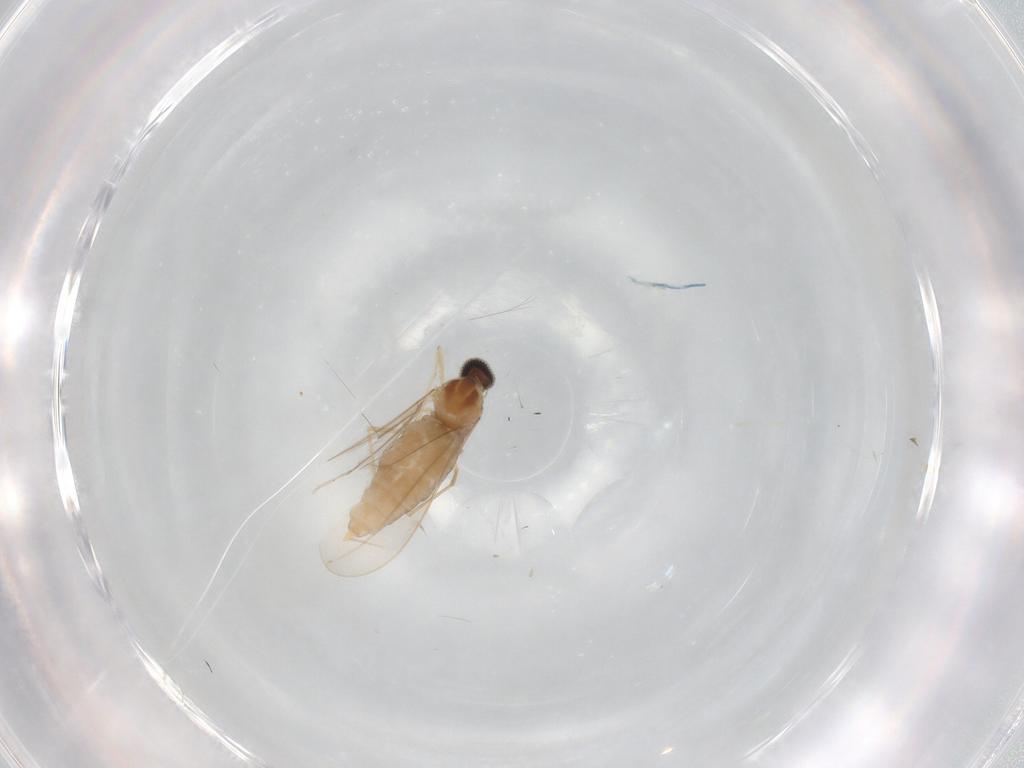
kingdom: Animalia
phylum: Arthropoda
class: Insecta
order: Diptera
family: Cecidomyiidae
